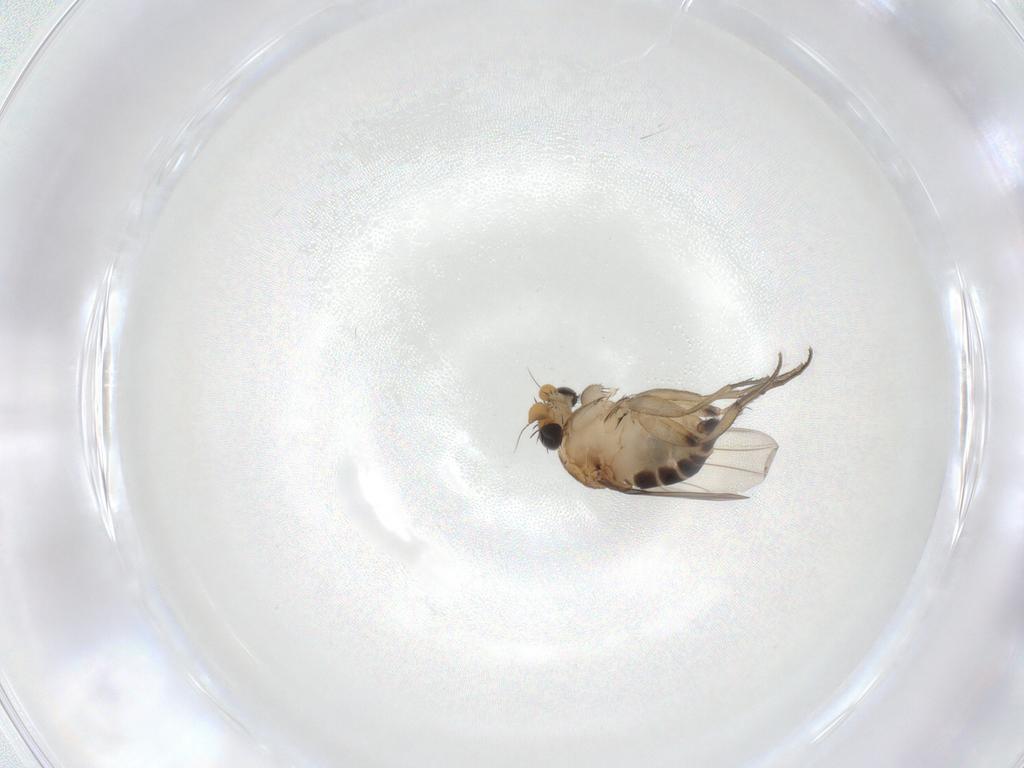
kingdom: Animalia
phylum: Arthropoda
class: Insecta
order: Diptera
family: Phoridae
